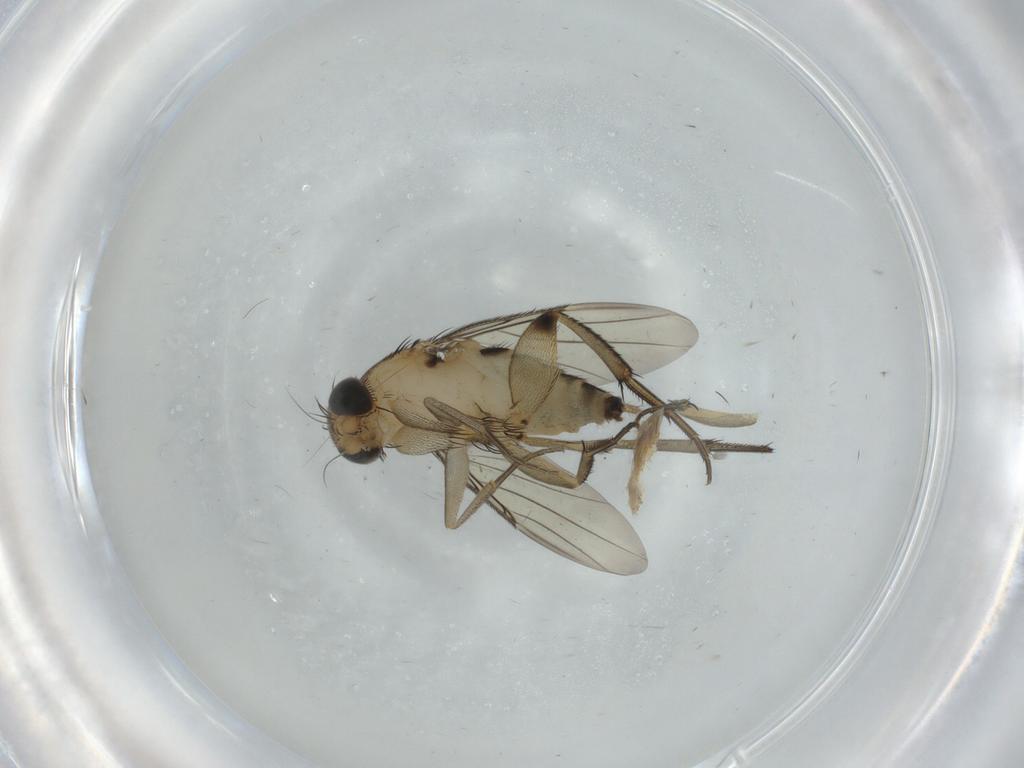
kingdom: Animalia
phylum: Arthropoda
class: Insecta
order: Diptera
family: Phoridae
